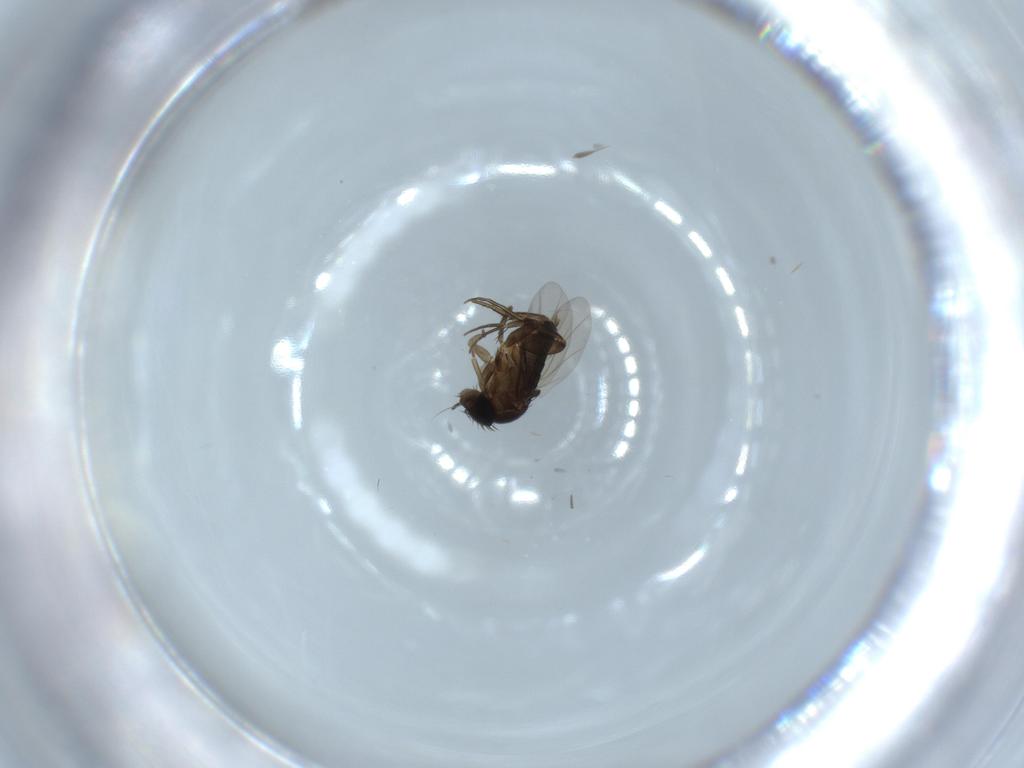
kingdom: Animalia
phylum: Arthropoda
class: Insecta
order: Diptera
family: Phoridae
